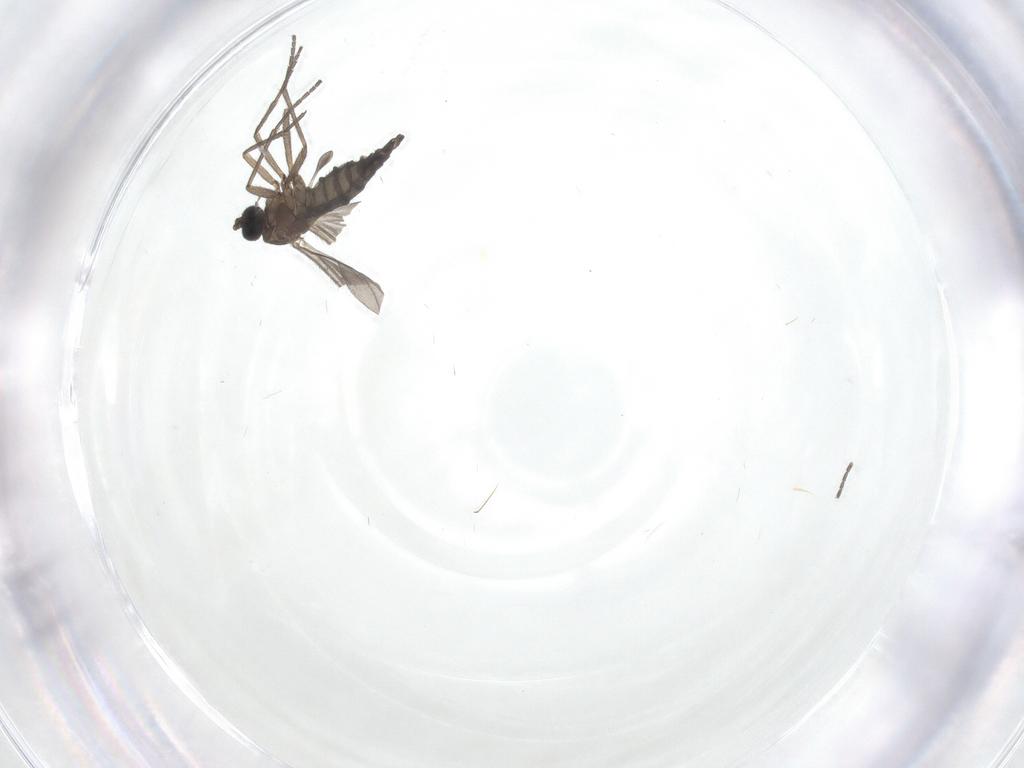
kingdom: Animalia
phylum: Arthropoda
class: Insecta
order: Diptera
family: Sciaridae
